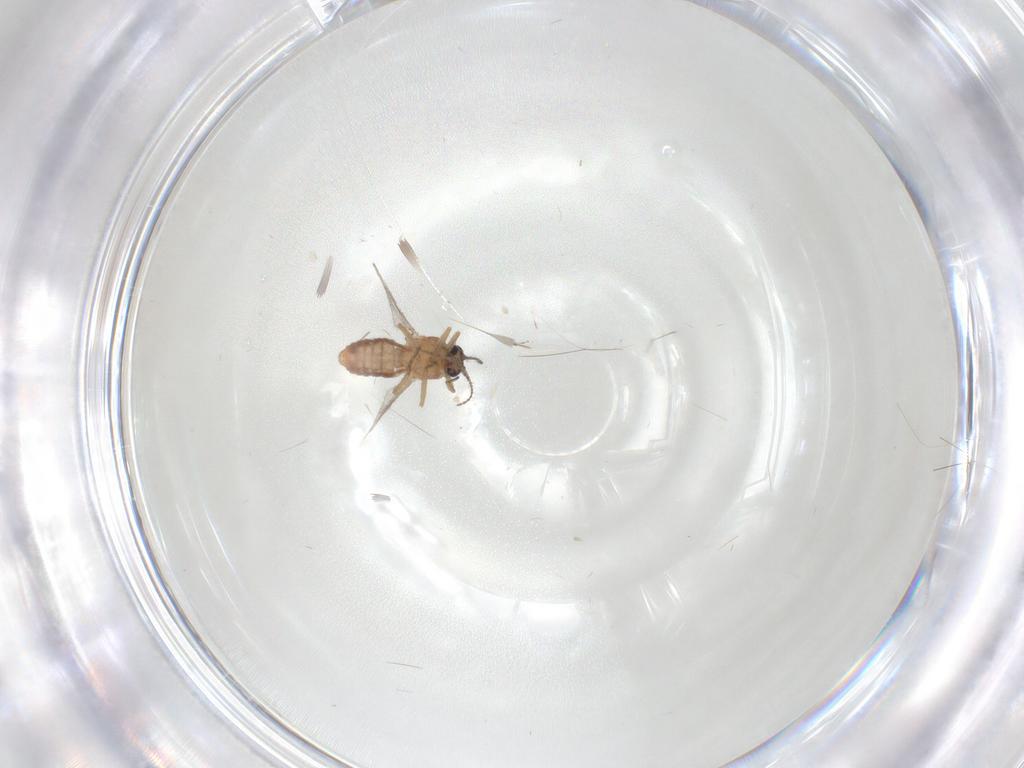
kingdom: Animalia
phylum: Arthropoda
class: Insecta
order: Diptera
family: Ceratopogonidae
